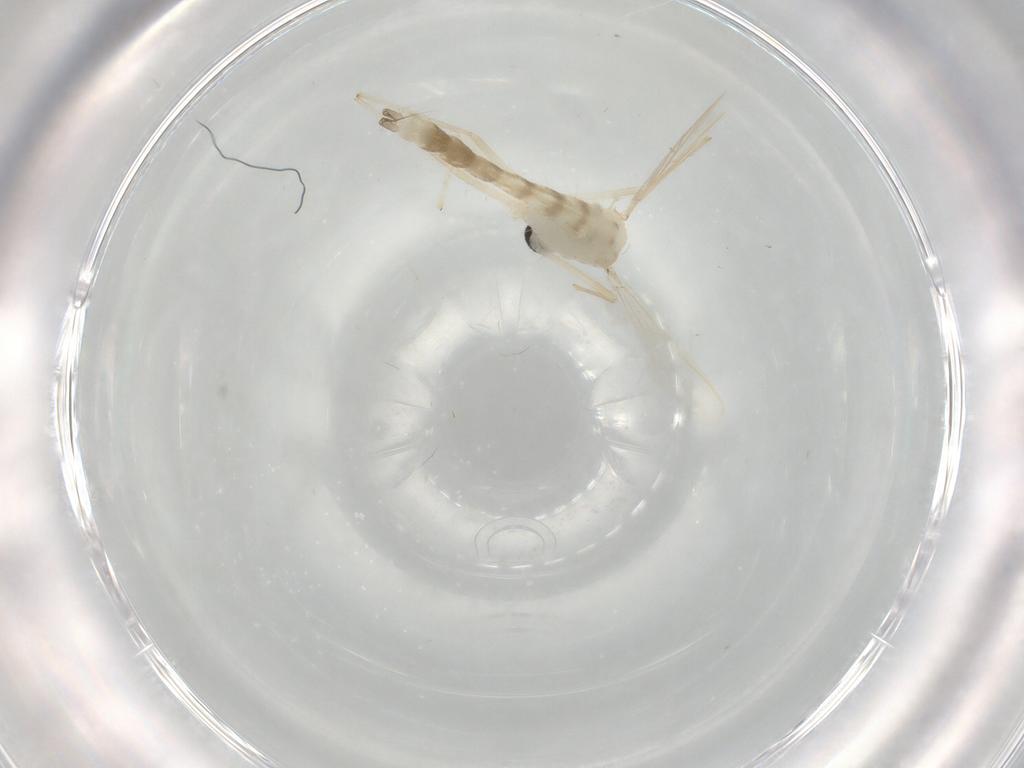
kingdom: Animalia
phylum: Arthropoda
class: Insecta
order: Diptera
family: Chironomidae
